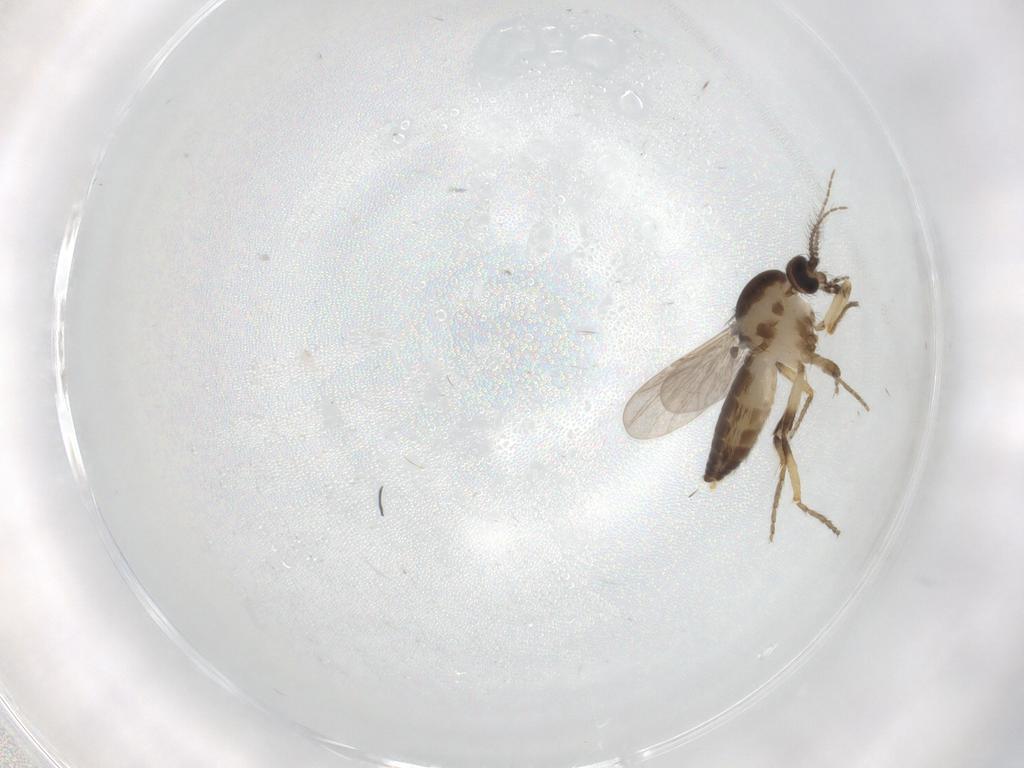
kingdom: Animalia
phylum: Arthropoda
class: Insecta
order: Diptera
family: Ceratopogonidae
